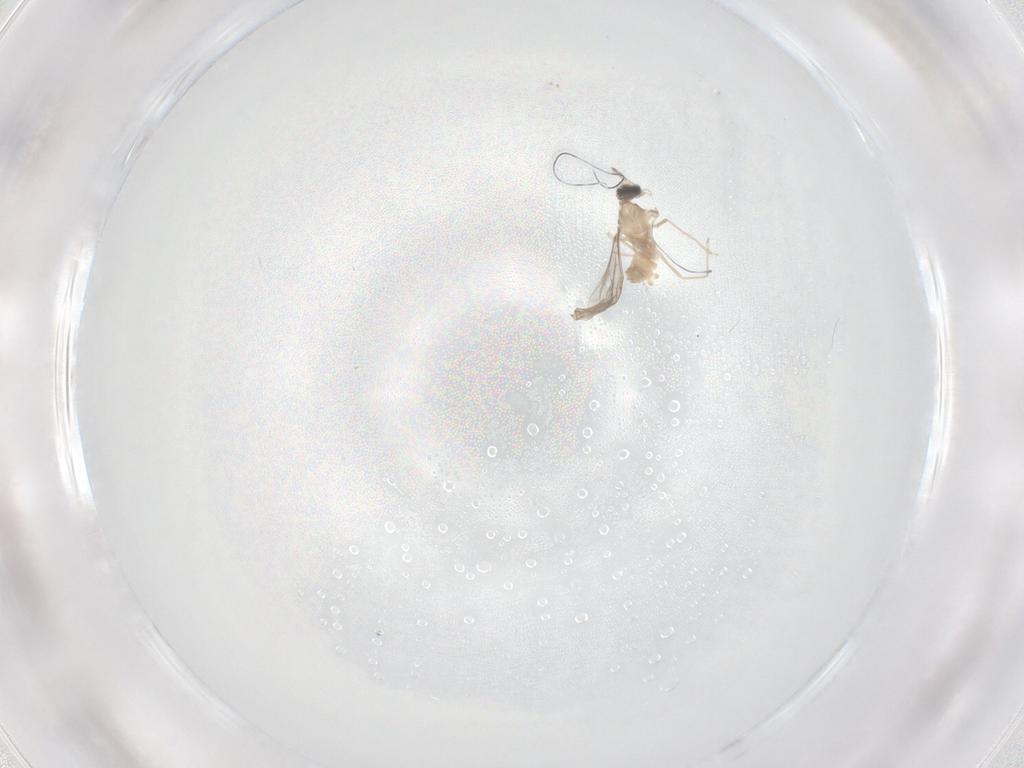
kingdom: Animalia
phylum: Arthropoda
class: Insecta
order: Diptera
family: Cecidomyiidae
